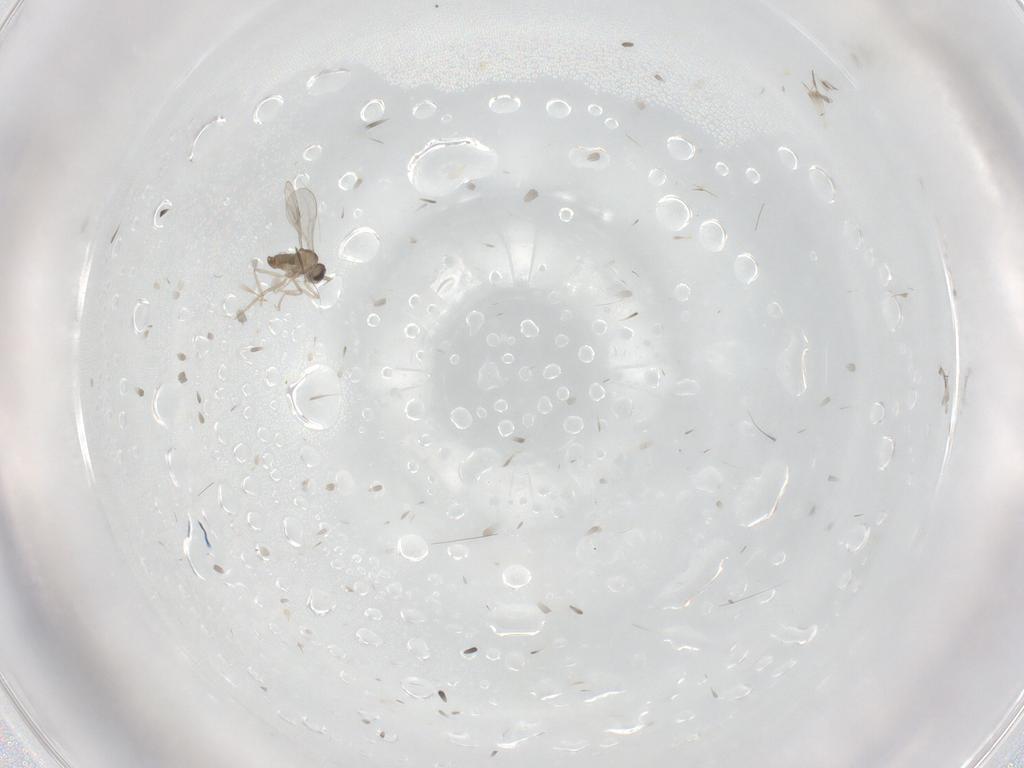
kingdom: Animalia
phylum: Arthropoda
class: Insecta
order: Diptera
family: Cecidomyiidae
